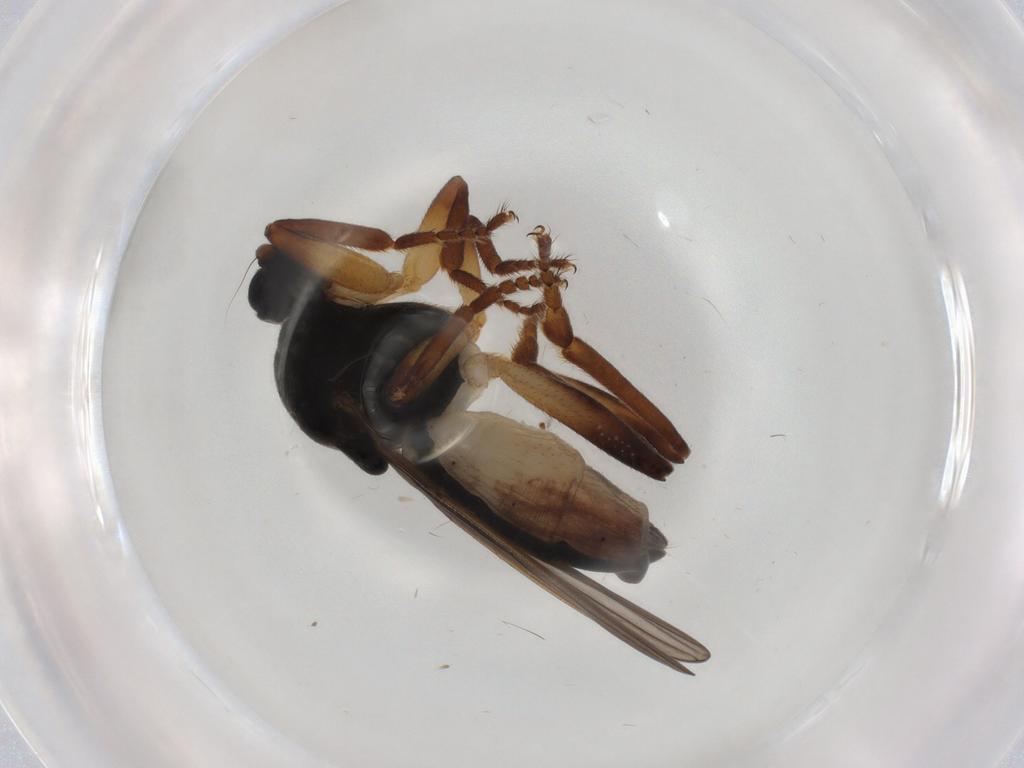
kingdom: Animalia
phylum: Arthropoda
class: Insecta
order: Diptera
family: Sphaeroceridae
